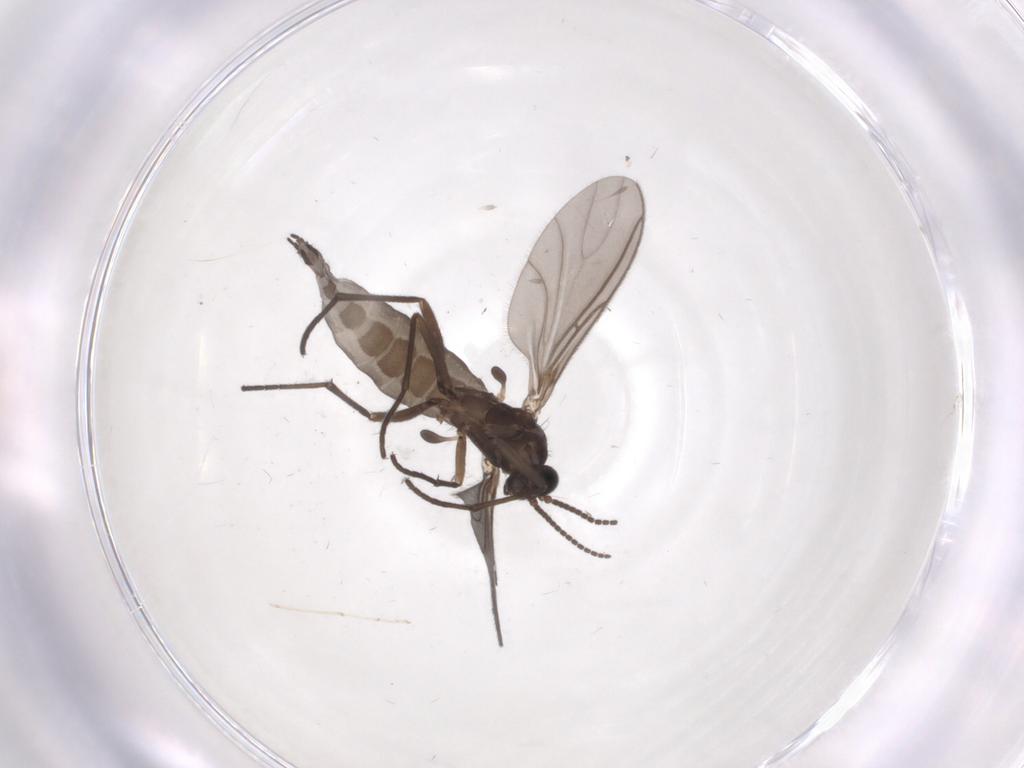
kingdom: Animalia
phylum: Arthropoda
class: Insecta
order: Diptera
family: Sciaridae
